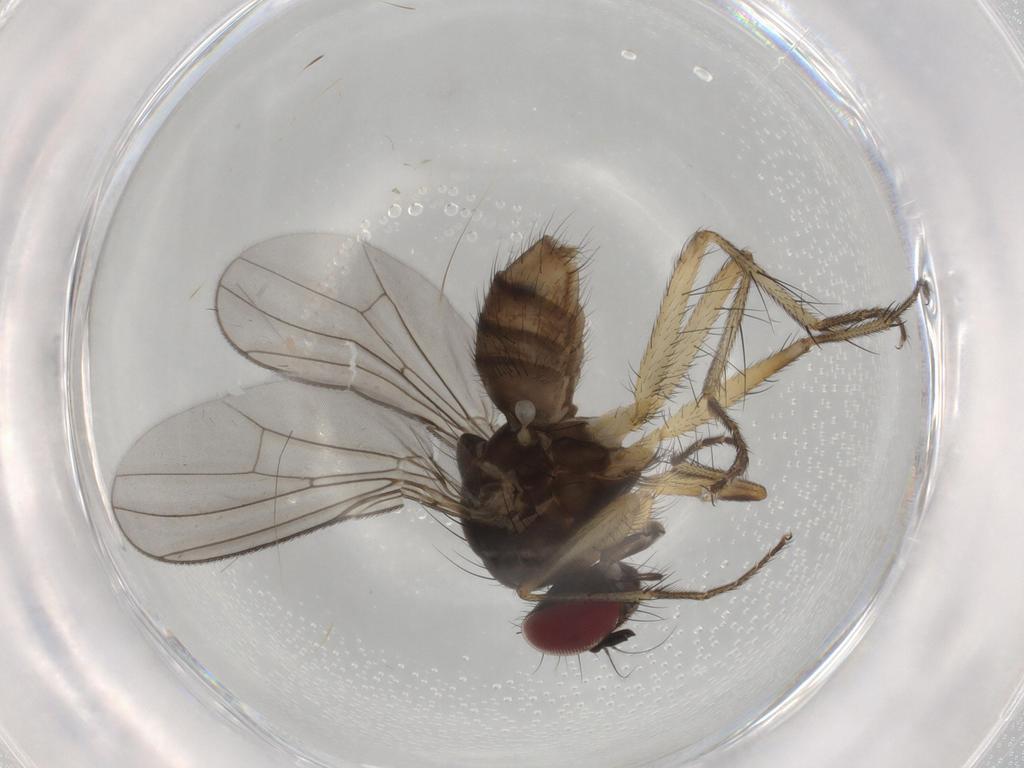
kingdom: Animalia
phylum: Arthropoda
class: Insecta
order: Diptera
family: Anthomyiidae
